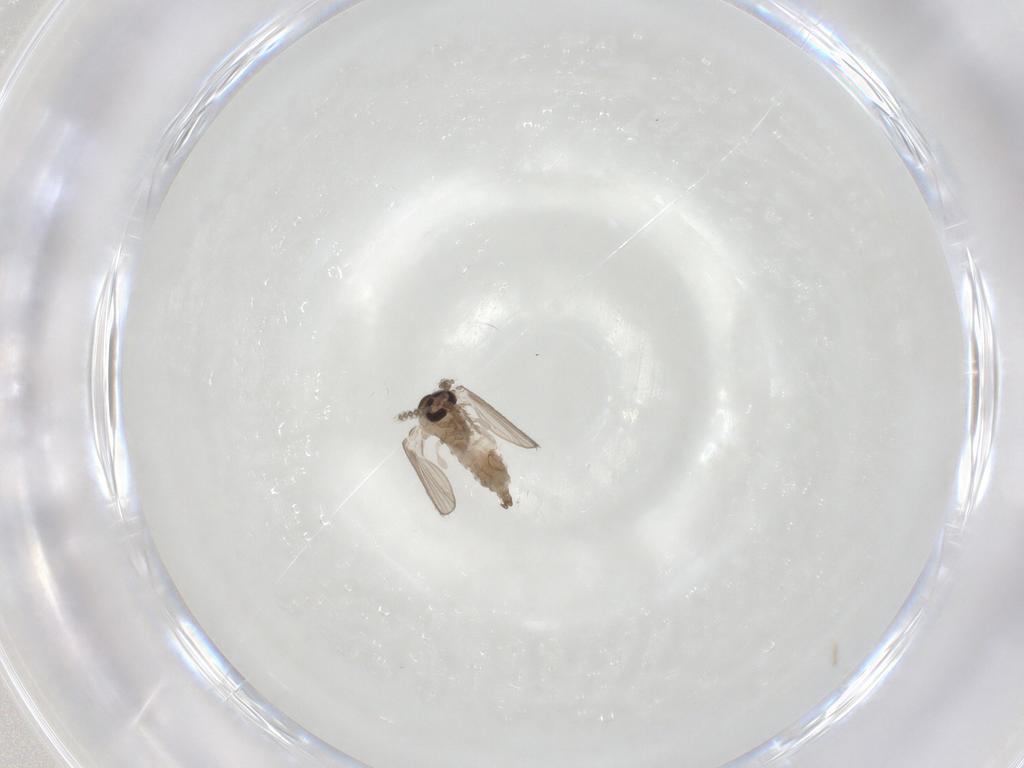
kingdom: Animalia
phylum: Arthropoda
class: Insecta
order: Diptera
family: Psychodidae
